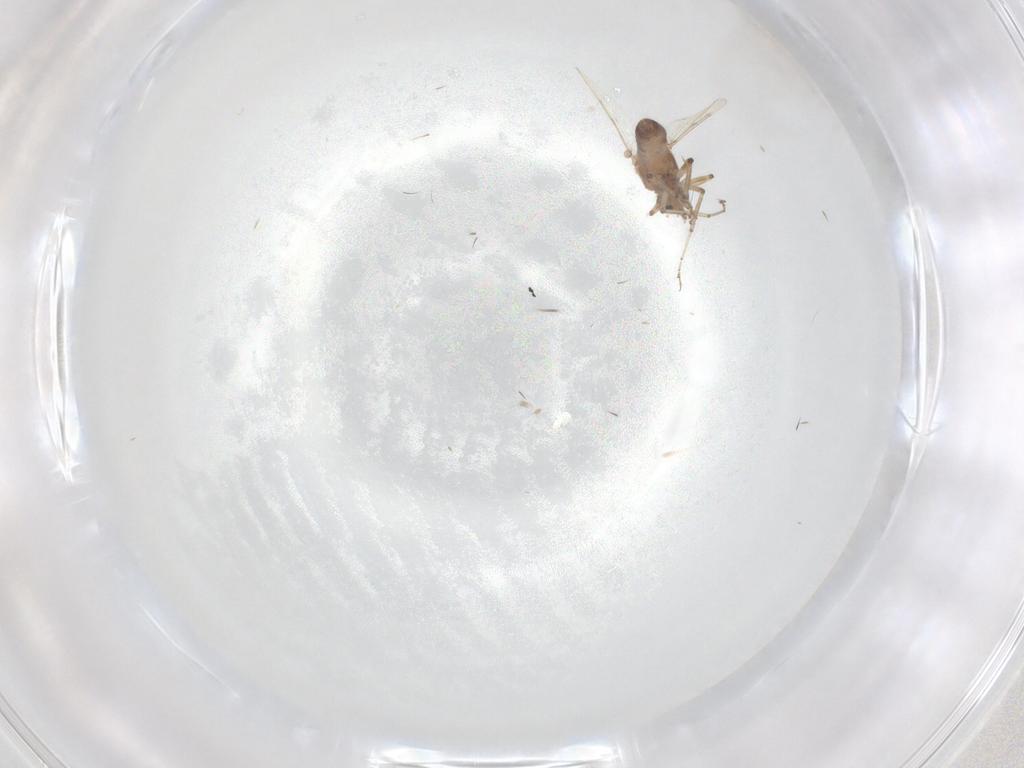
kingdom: Animalia
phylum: Arthropoda
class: Insecta
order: Diptera
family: Ceratopogonidae
